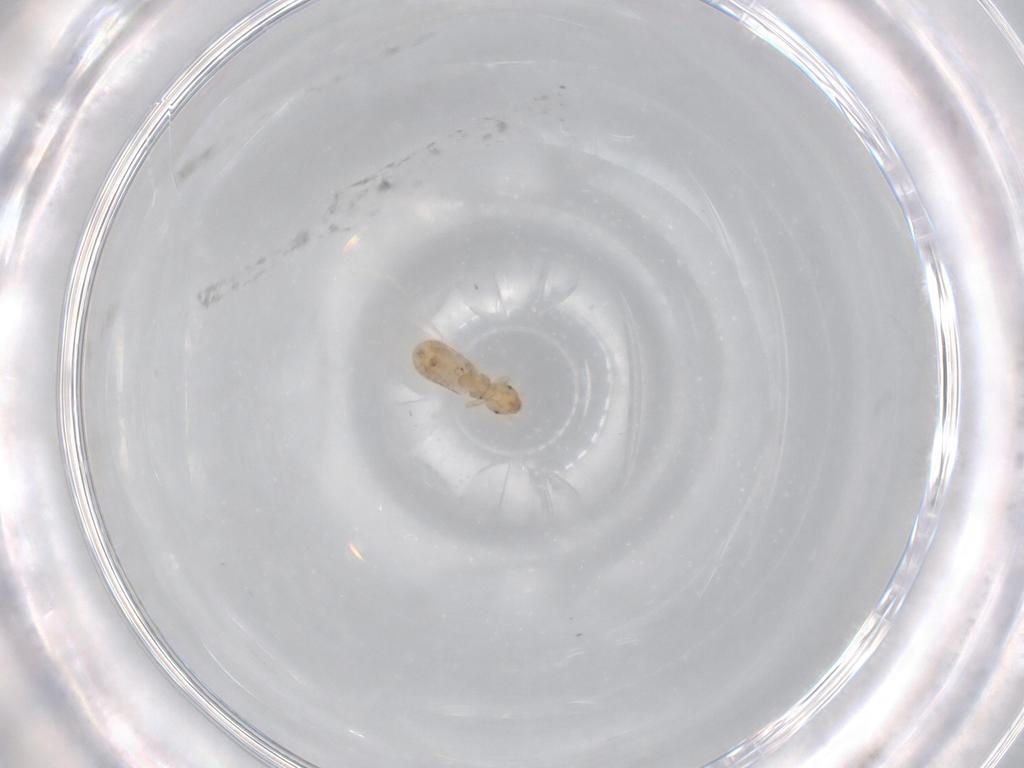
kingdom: Animalia
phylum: Arthropoda
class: Insecta
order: Psocodea
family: Liposcelididae
